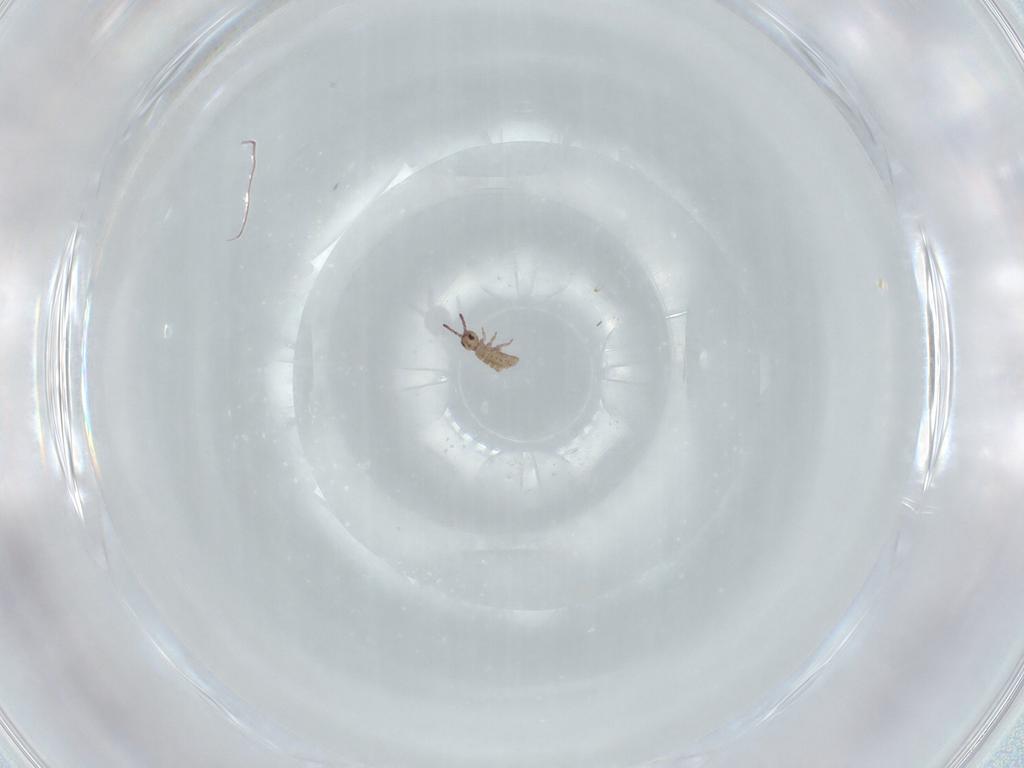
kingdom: Animalia
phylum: Arthropoda
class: Collembola
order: Entomobryomorpha
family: Isotomidae
